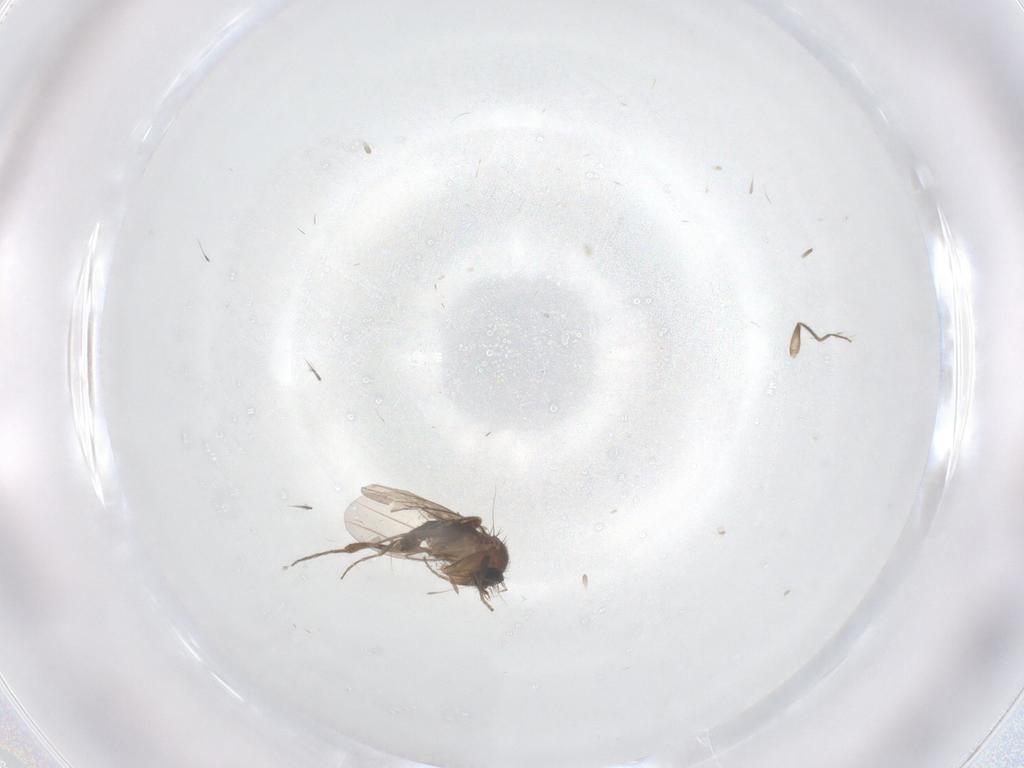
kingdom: Animalia
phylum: Arthropoda
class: Insecta
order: Diptera
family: Phoridae
